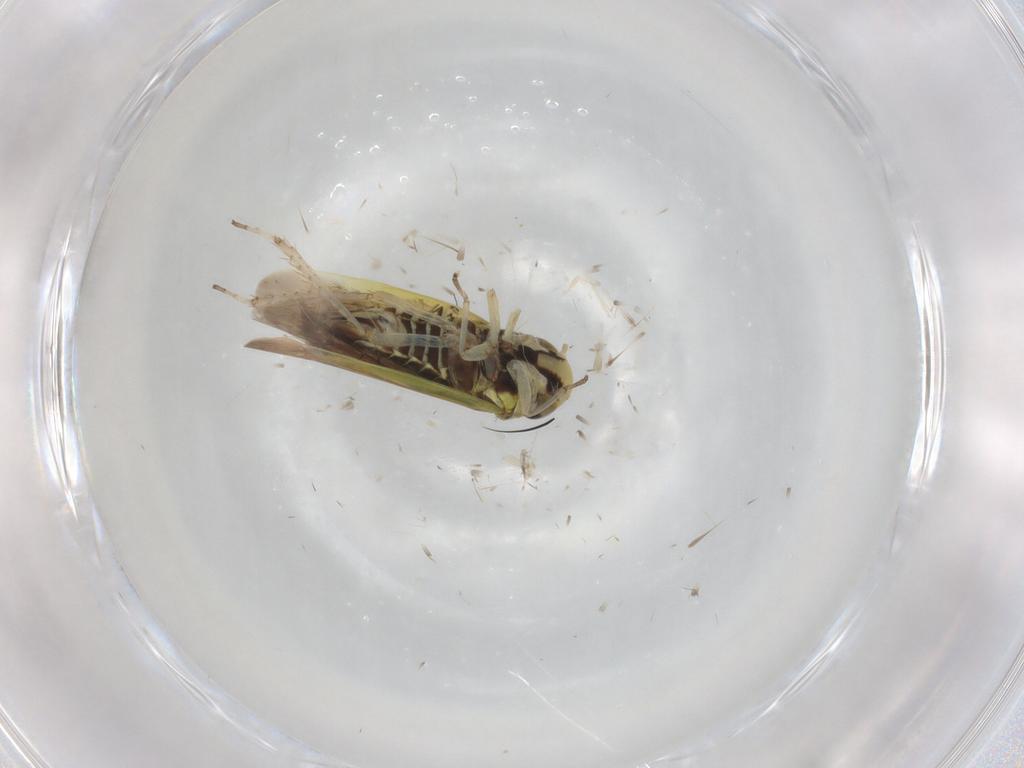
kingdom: Animalia
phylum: Arthropoda
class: Insecta
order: Hemiptera
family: Cicadellidae
